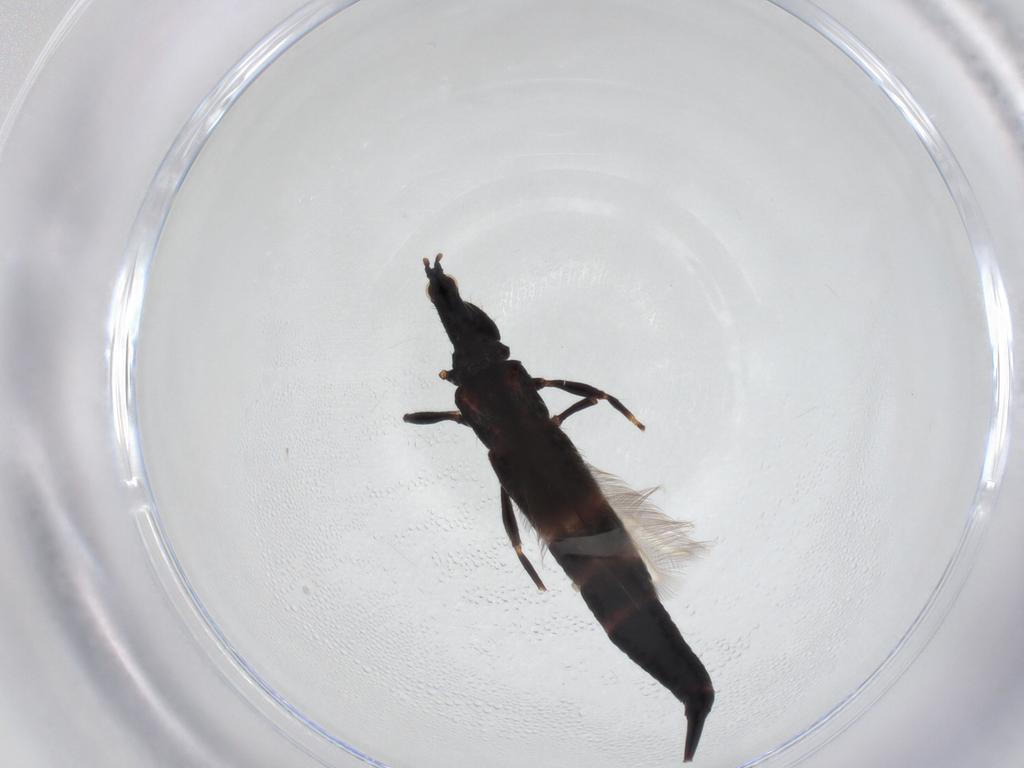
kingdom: Animalia
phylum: Arthropoda
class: Insecta
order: Thysanoptera
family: Phlaeothripidae
